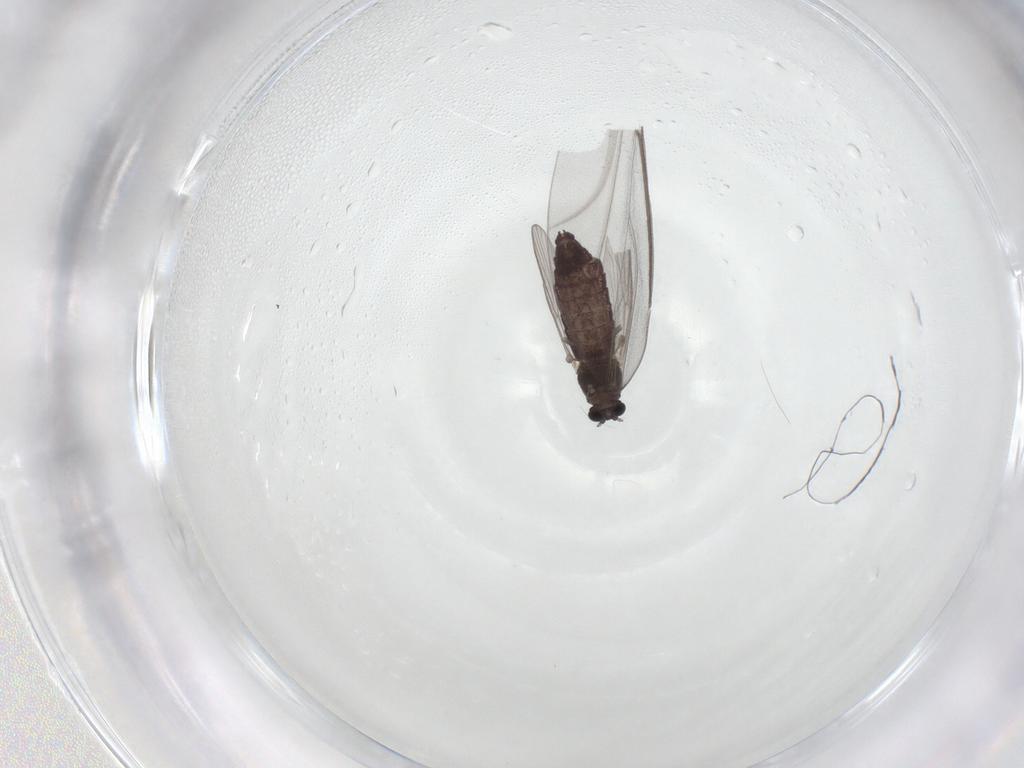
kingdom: Animalia
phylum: Arthropoda
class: Insecta
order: Diptera
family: Cecidomyiidae
